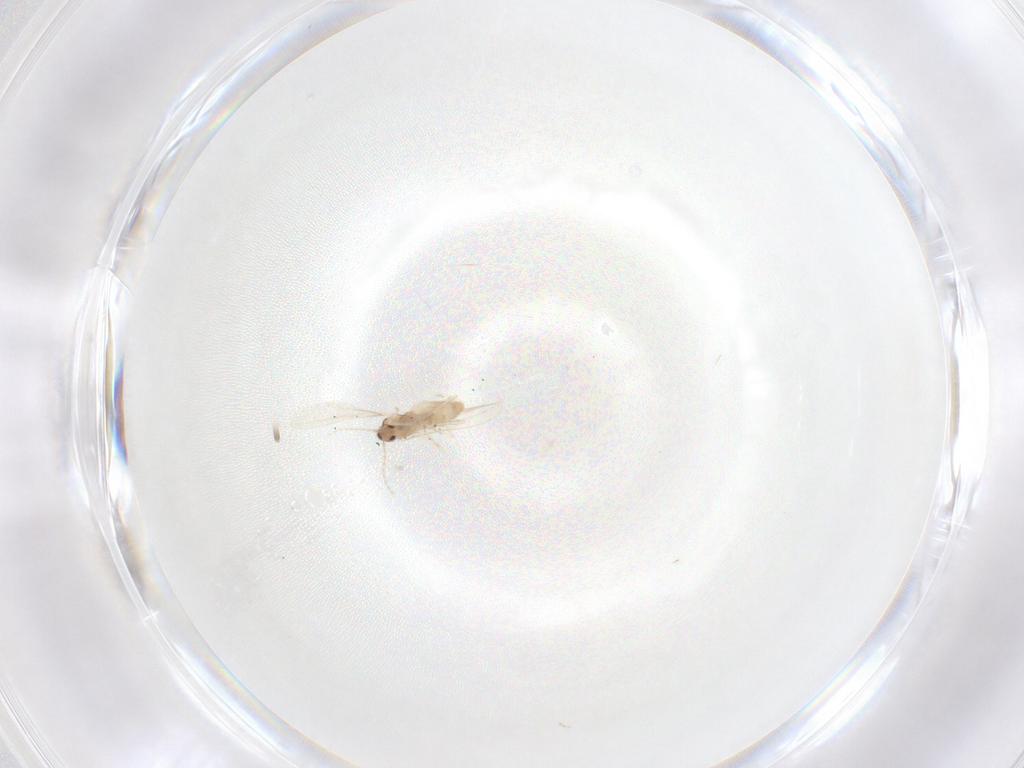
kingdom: Animalia
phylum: Arthropoda
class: Insecta
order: Diptera
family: Cecidomyiidae
